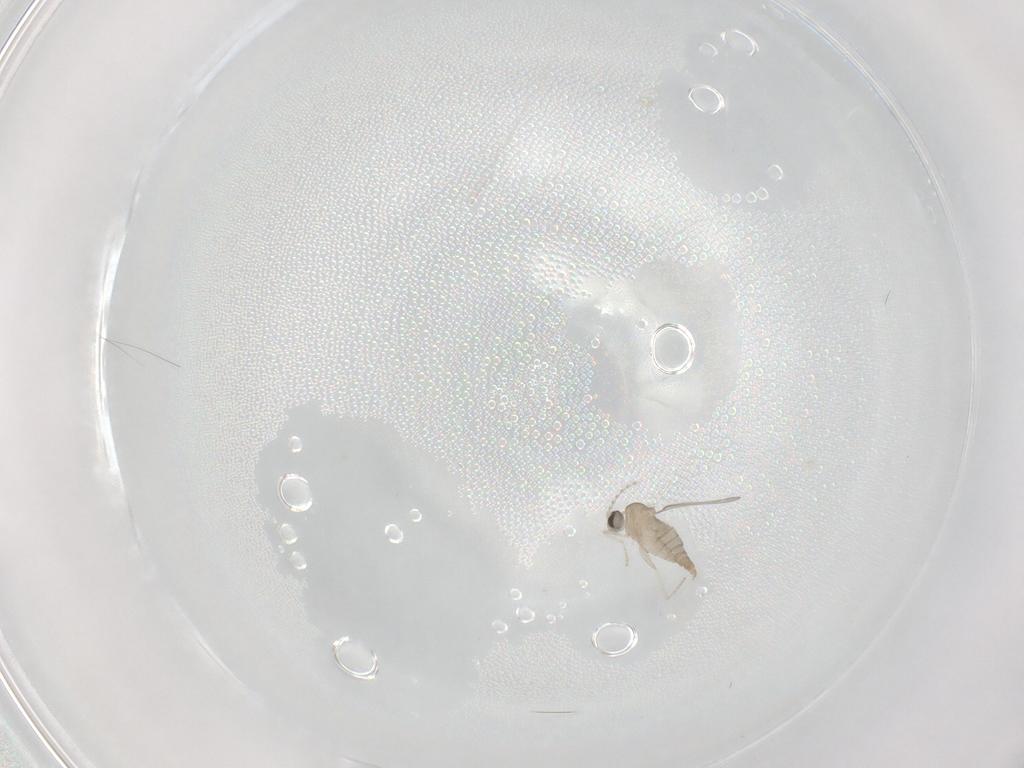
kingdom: Animalia
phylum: Arthropoda
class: Insecta
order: Diptera
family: Cecidomyiidae
